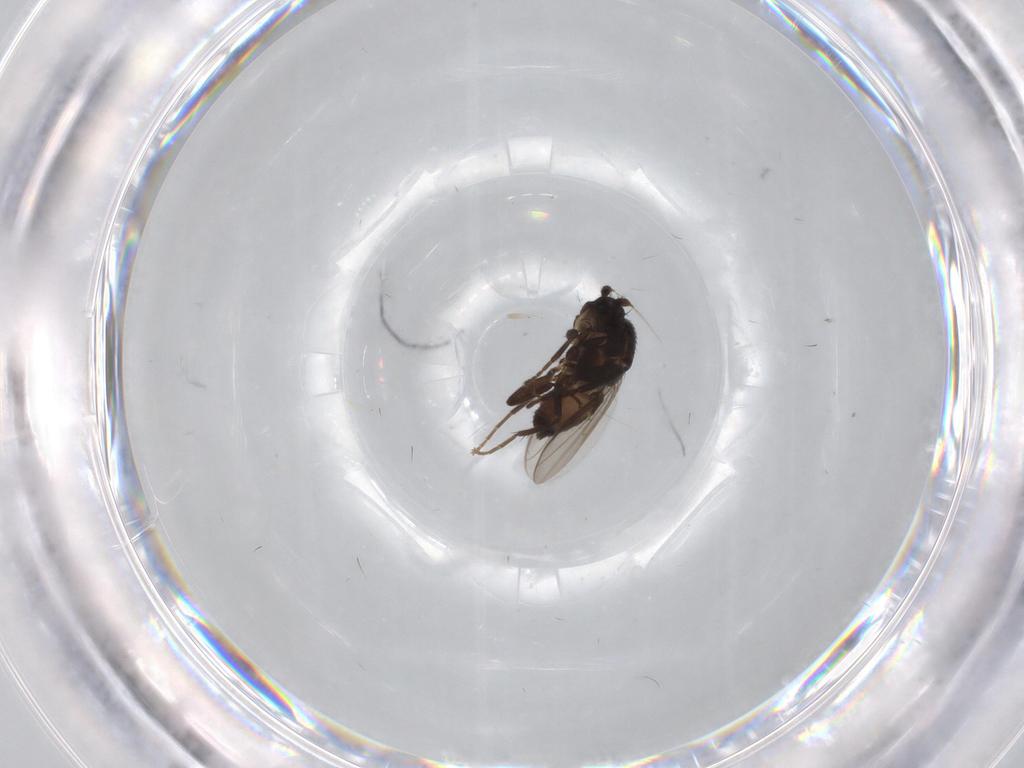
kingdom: Animalia
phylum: Arthropoda
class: Insecta
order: Diptera
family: Sphaeroceridae
